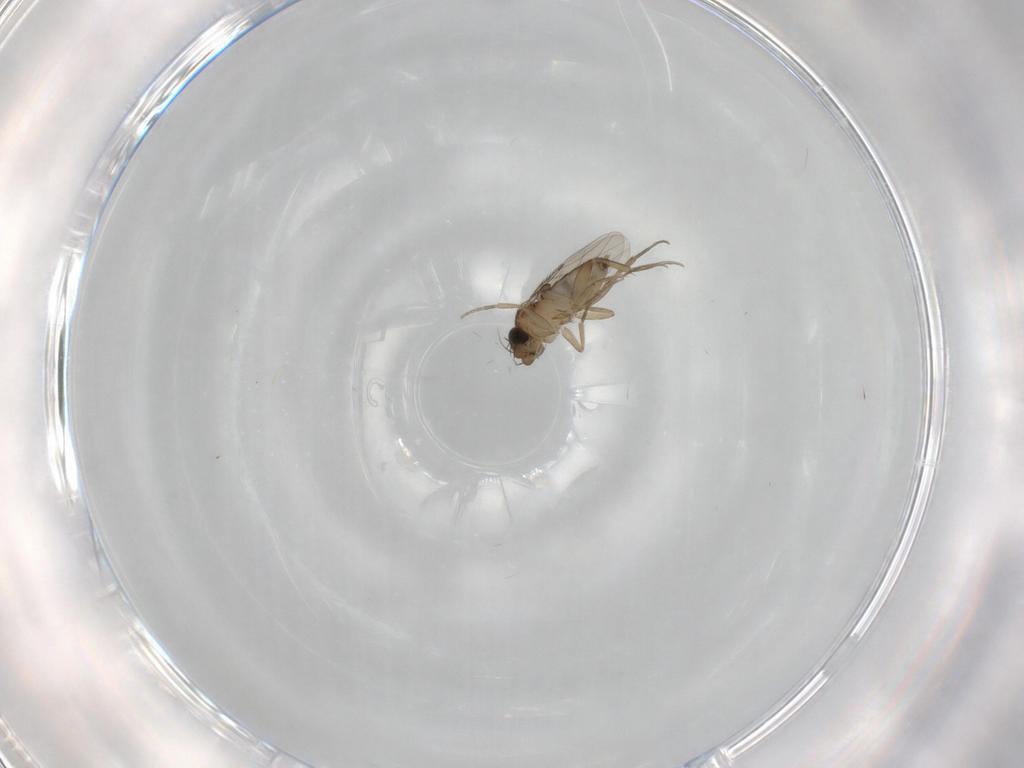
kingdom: Animalia
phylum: Arthropoda
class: Insecta
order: Diptera
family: Phoridae
